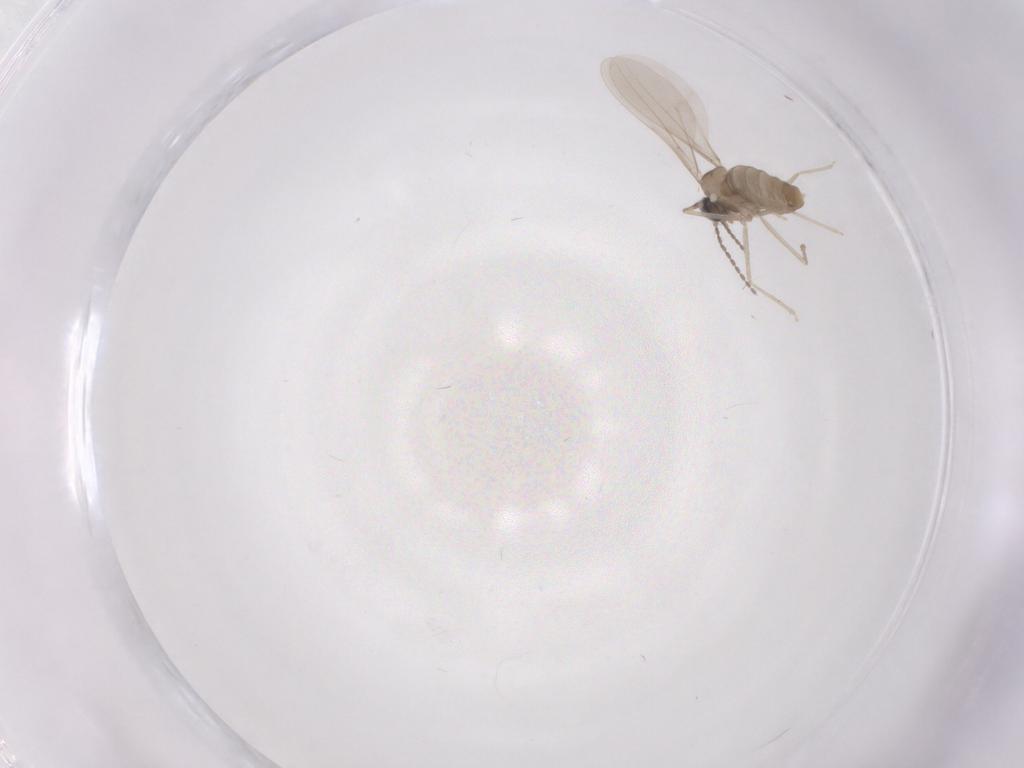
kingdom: Animalia
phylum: Arthropoda
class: Insecta
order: Diptera
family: Cecidomyiidae
